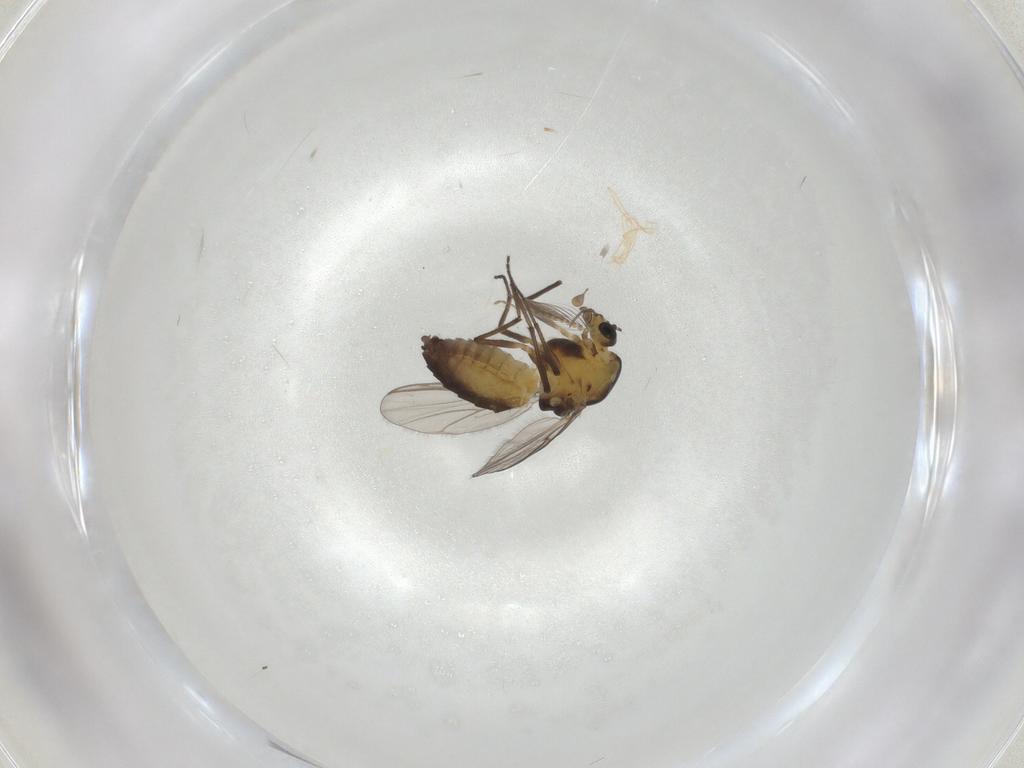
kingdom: Animalia
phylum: Arthropoda
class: Insecta
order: Diptera
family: Chironomidae
